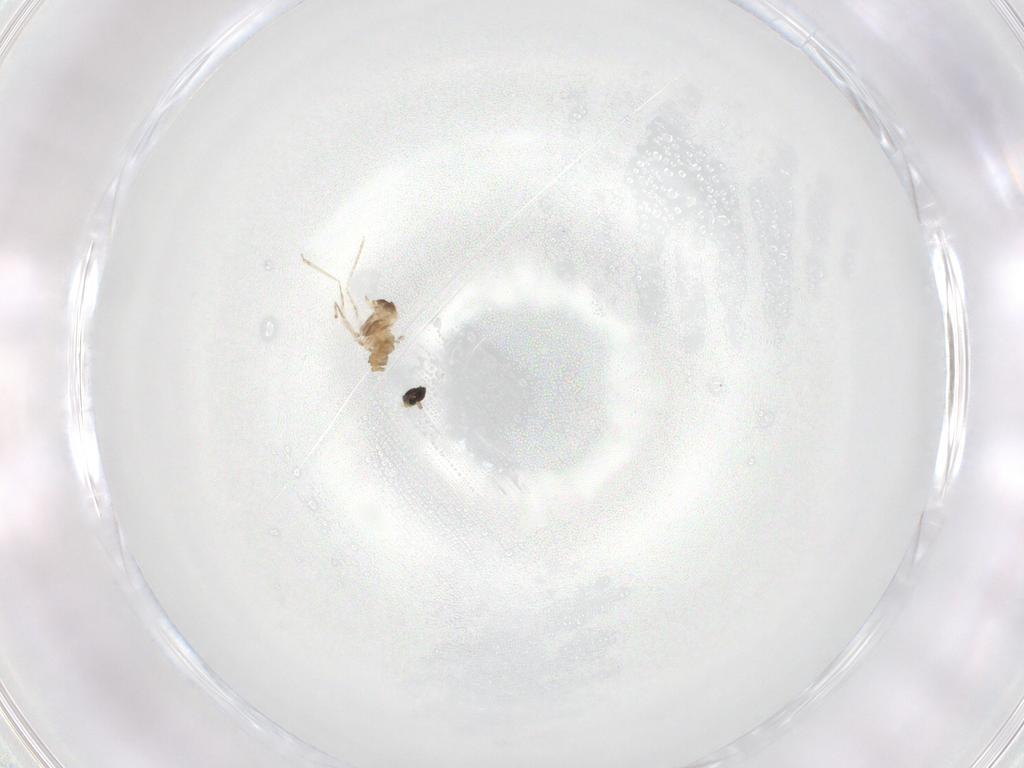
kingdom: Animalia
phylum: Arthropoda
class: Insecta
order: Diptera
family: Cecidomyiidae
